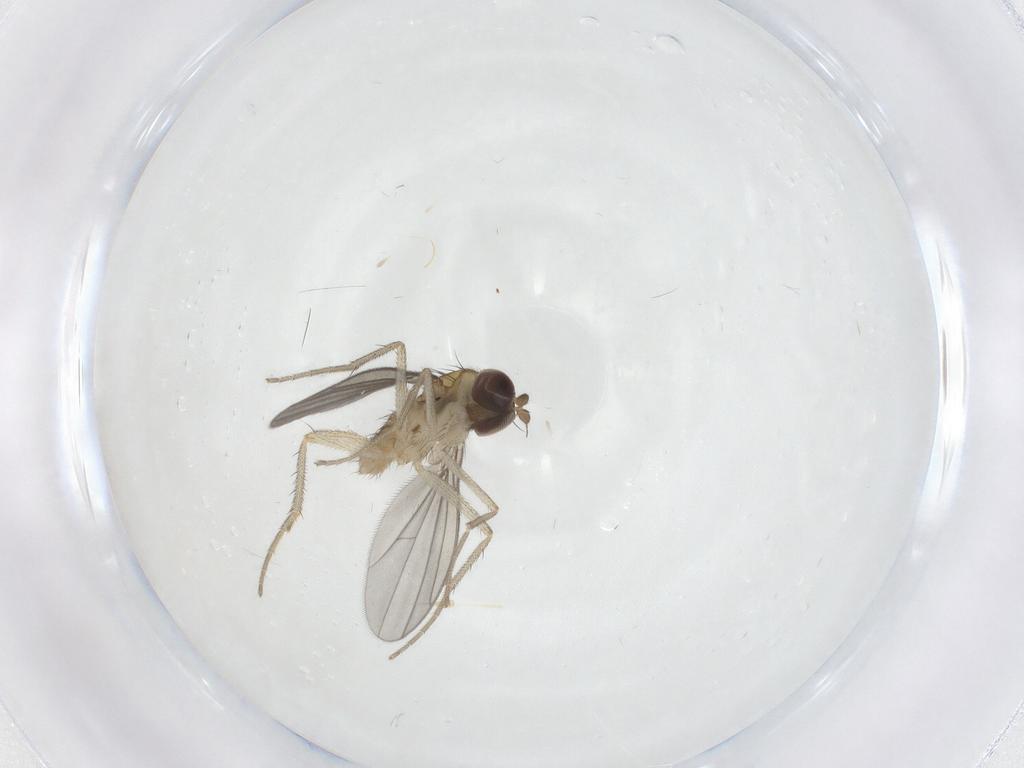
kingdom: Animalia
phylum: Arthropoda
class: Insecta
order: Diptera
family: Dolichopodidae
